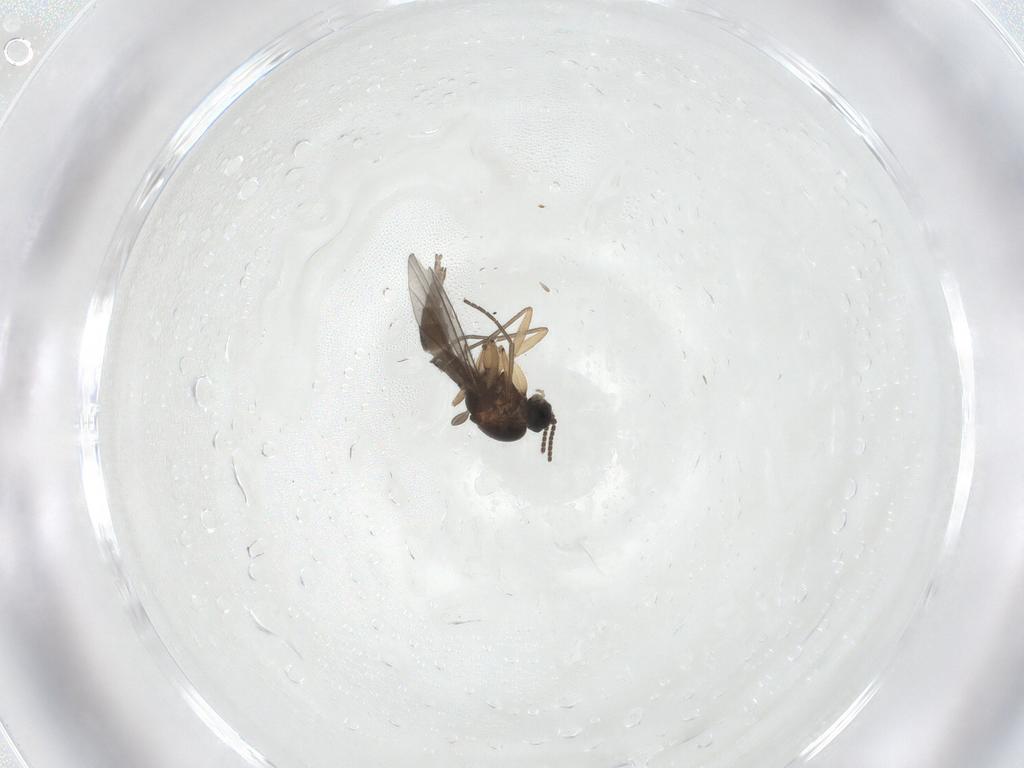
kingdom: Animalia
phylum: Arthropoda
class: Insecta
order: Diptera
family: Sciaridae
